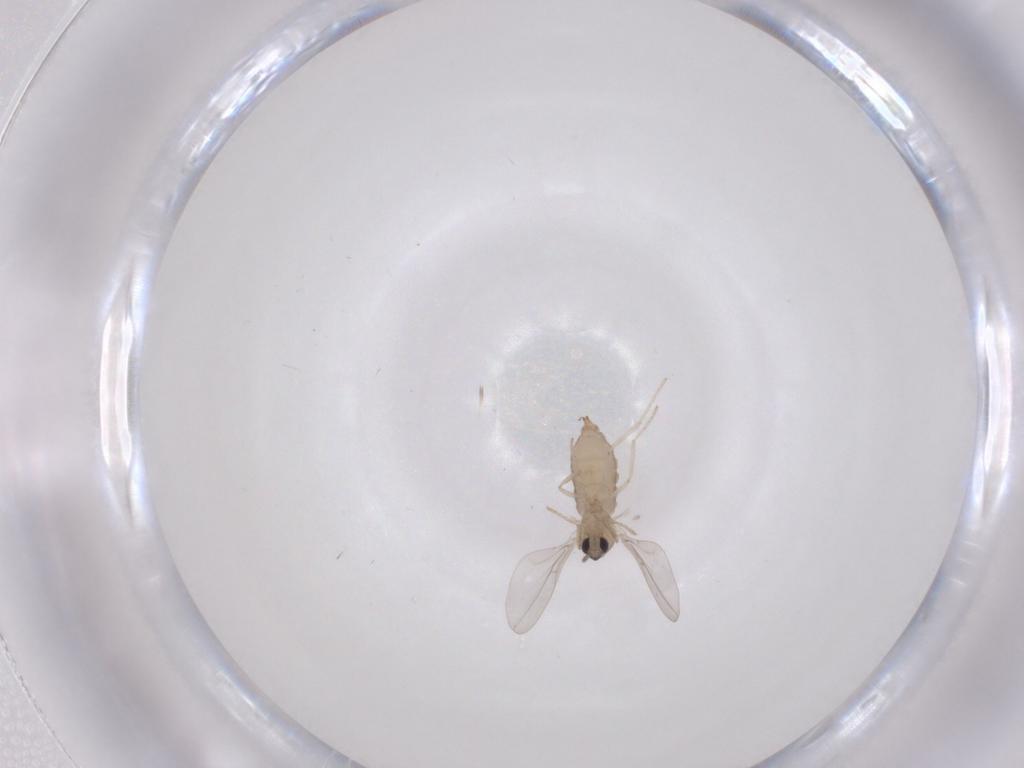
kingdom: Animalia
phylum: Arthropoda
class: Insecta
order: Diptera
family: Cecidomyiidae
